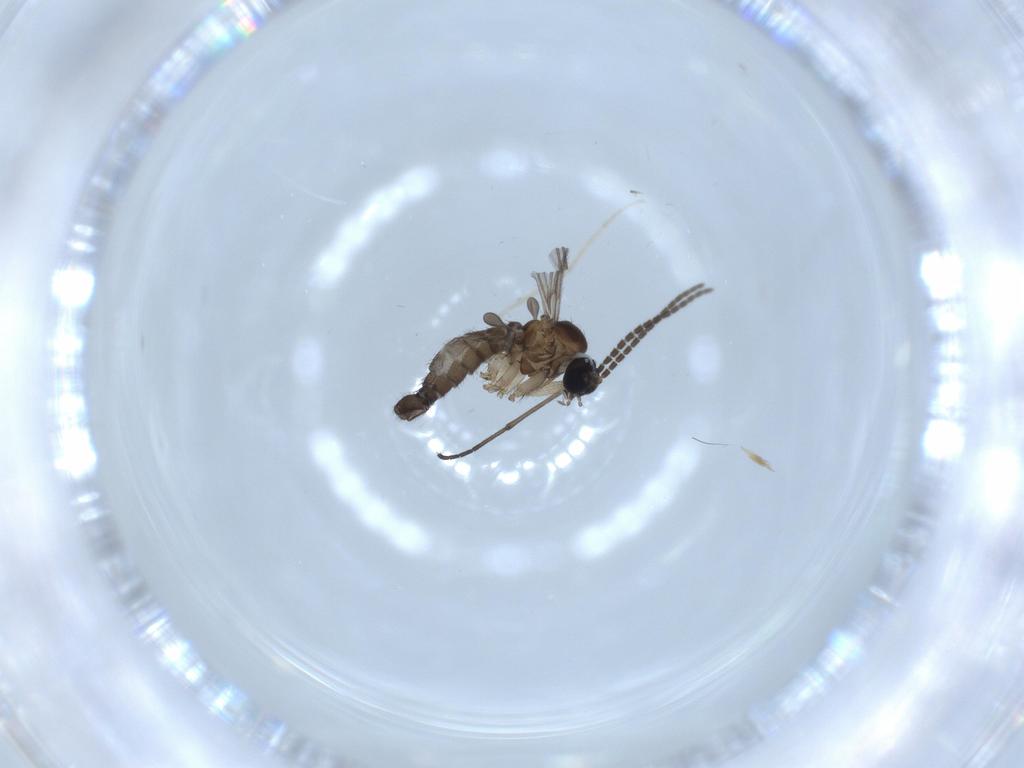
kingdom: Animalia
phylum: Arthropoda
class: Insecta
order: Diptera
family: Sciaridae
